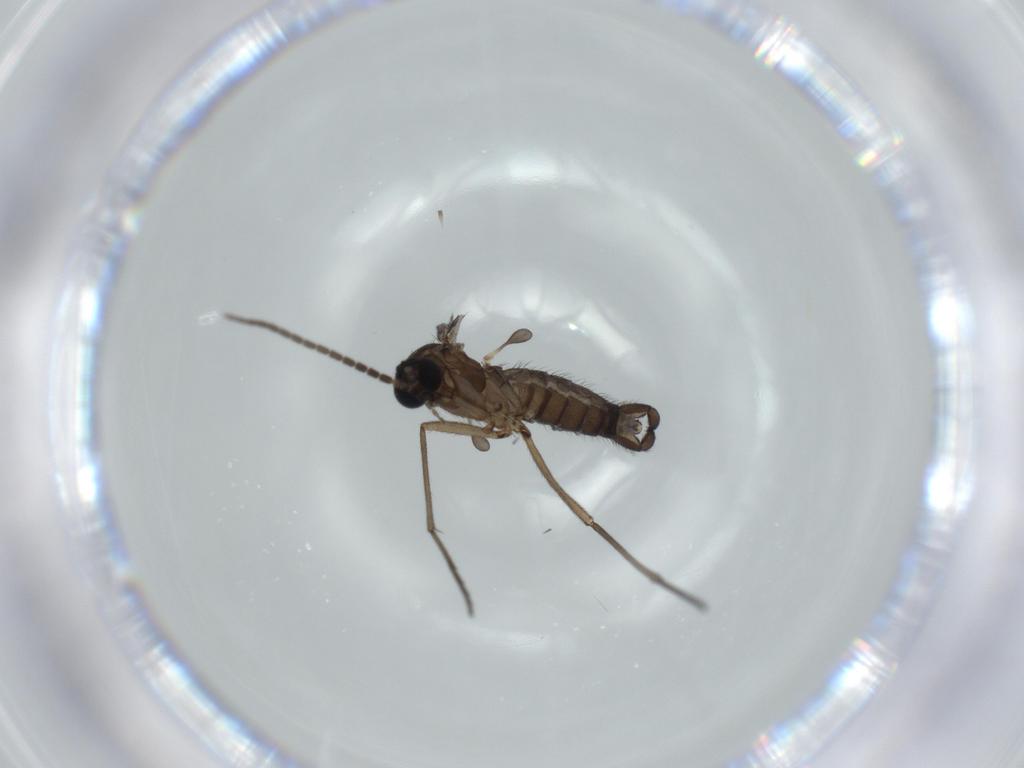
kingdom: Animalia
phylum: Arthropoda
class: Insecta
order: Diptera
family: Sciaridae
